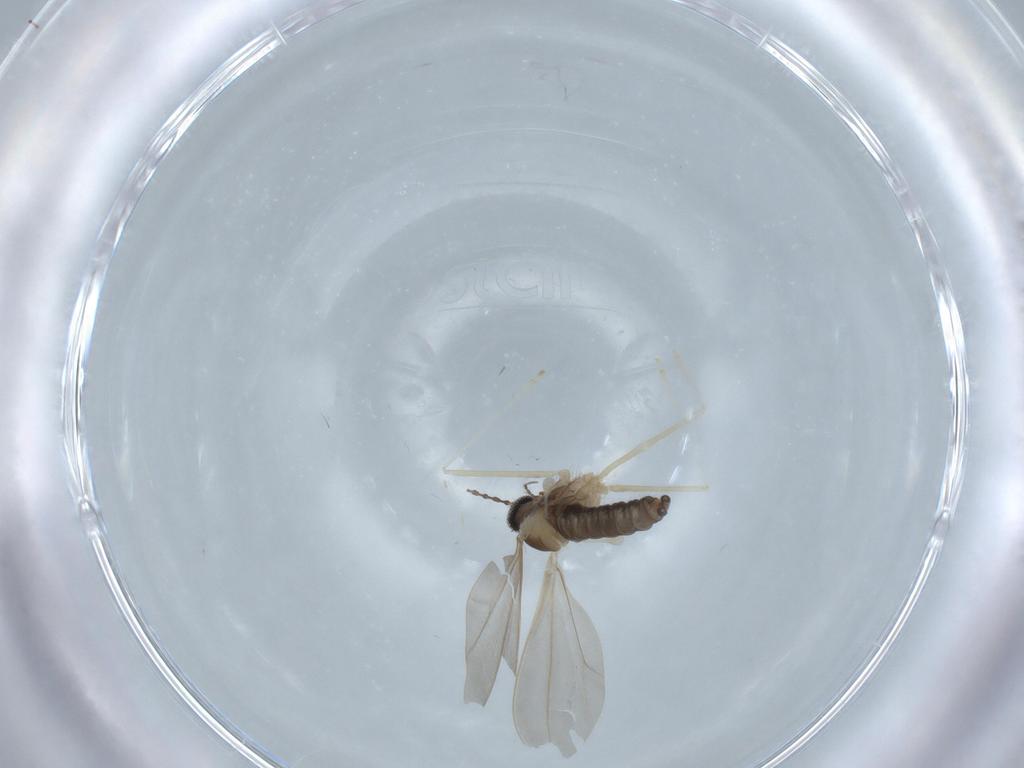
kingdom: Animalia
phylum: Arthropoda
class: Insecta
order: Diptera
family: Cecidomyiidae
